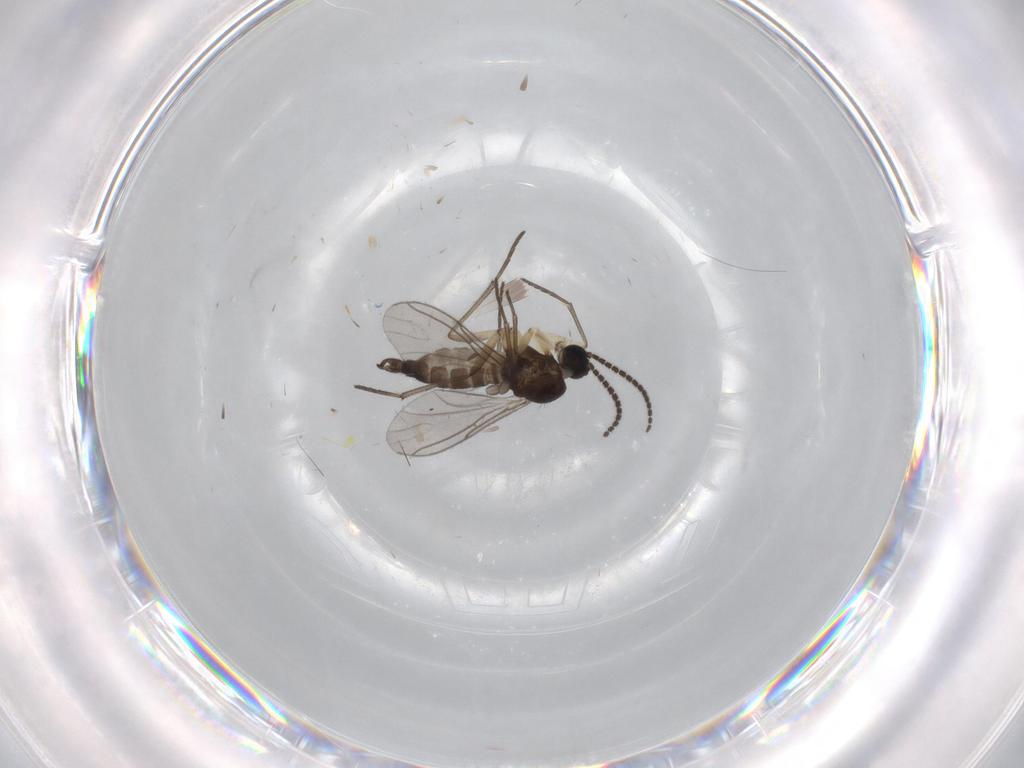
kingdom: Animalia
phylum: Arthropoda
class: Insecta
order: Diptera
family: Sciaridae
